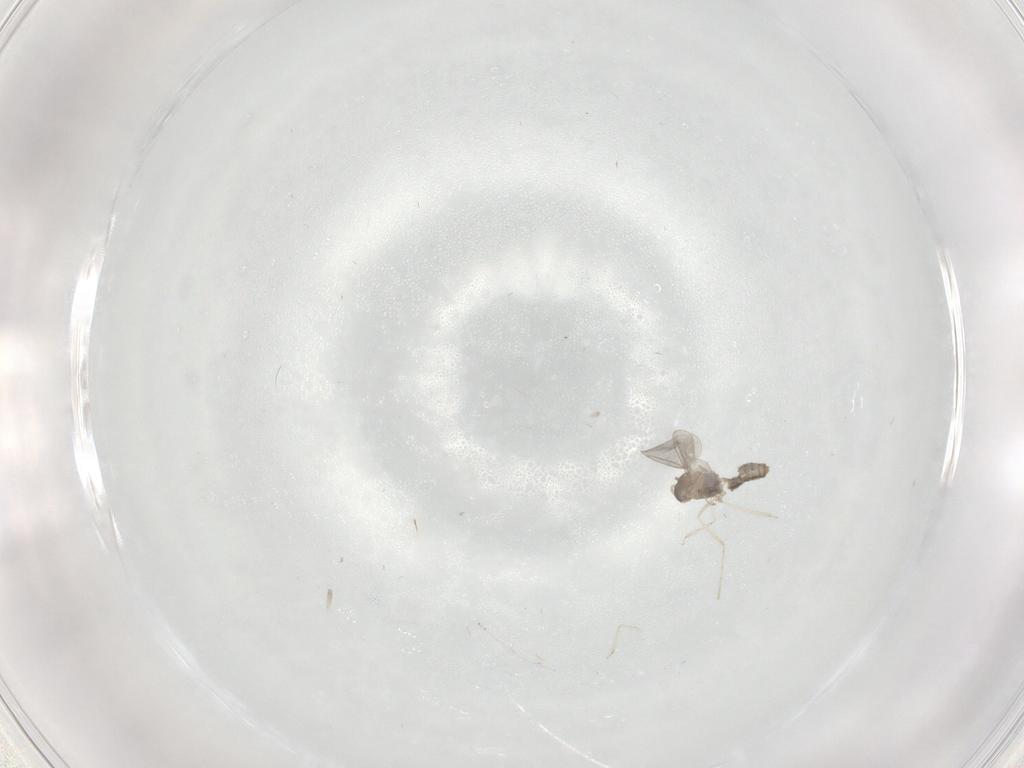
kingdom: Animalia
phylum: Arthropoda
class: Insecta
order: Diptera
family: Cecidomyiidae
